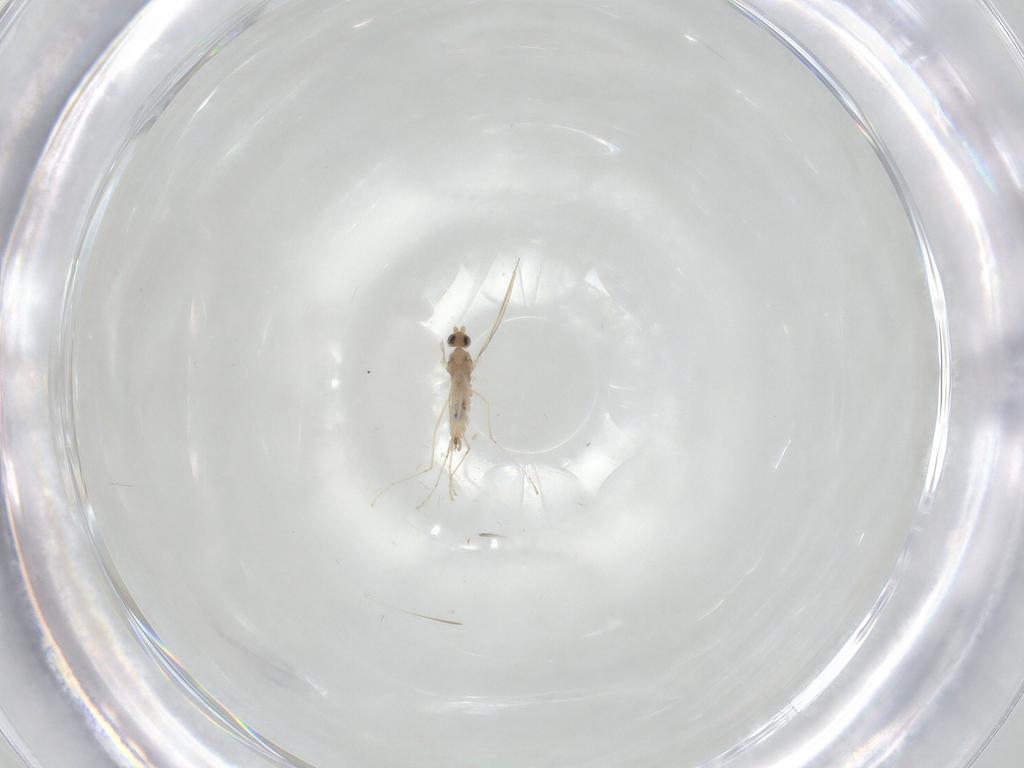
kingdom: Animalia
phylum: Arthropoda
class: Insecta
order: Diptera
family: Cecidomyiidae
